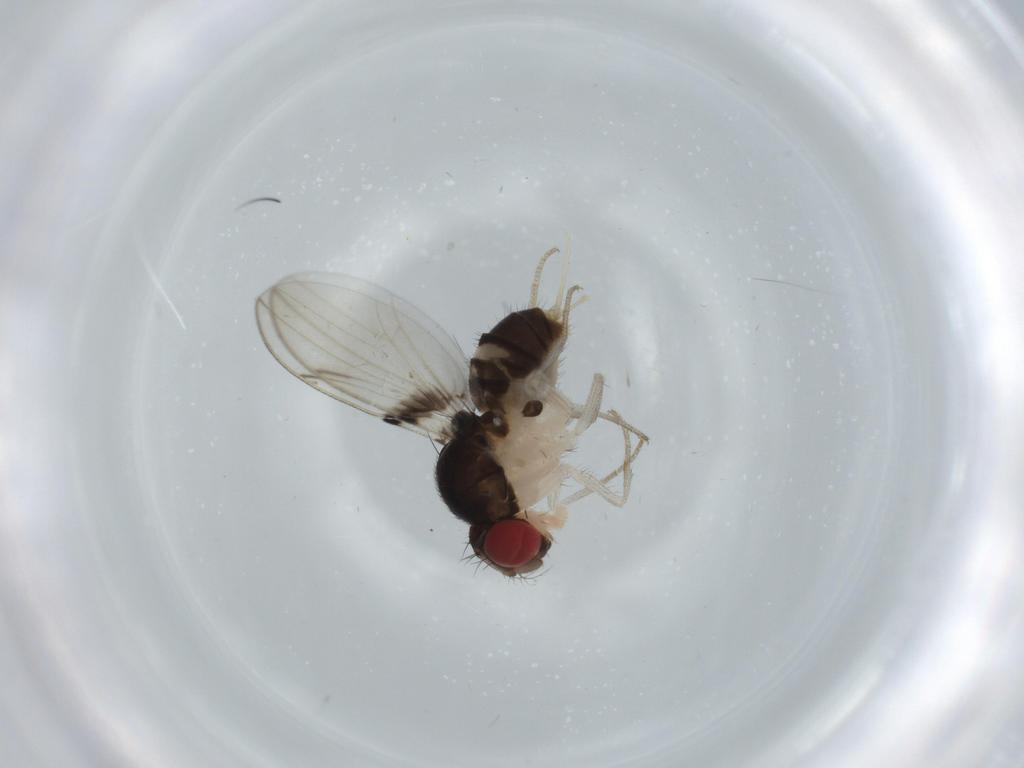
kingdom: Animalia
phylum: Arthropoda
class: Insecta
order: Diptera
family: Drosophilidae
